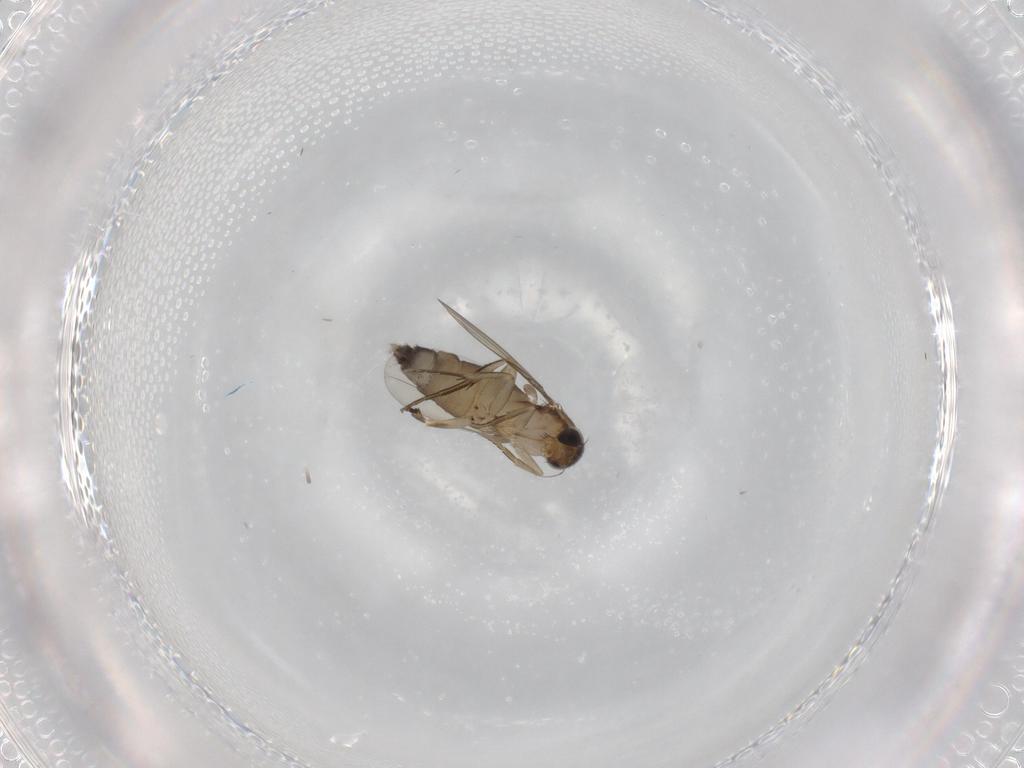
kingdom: Animalia
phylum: Arthropoda
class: Insecta
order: Diptera
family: Phoridae
